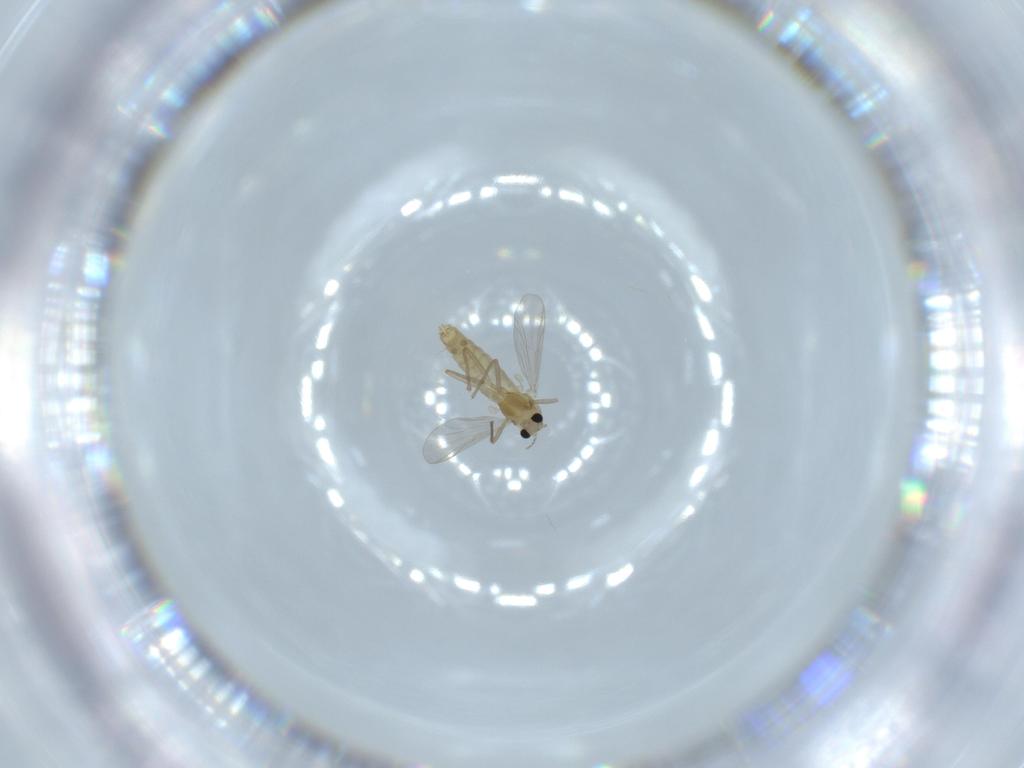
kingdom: Animalia
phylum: Arthropoda
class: Insecta
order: Diptera
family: Chironomidae
